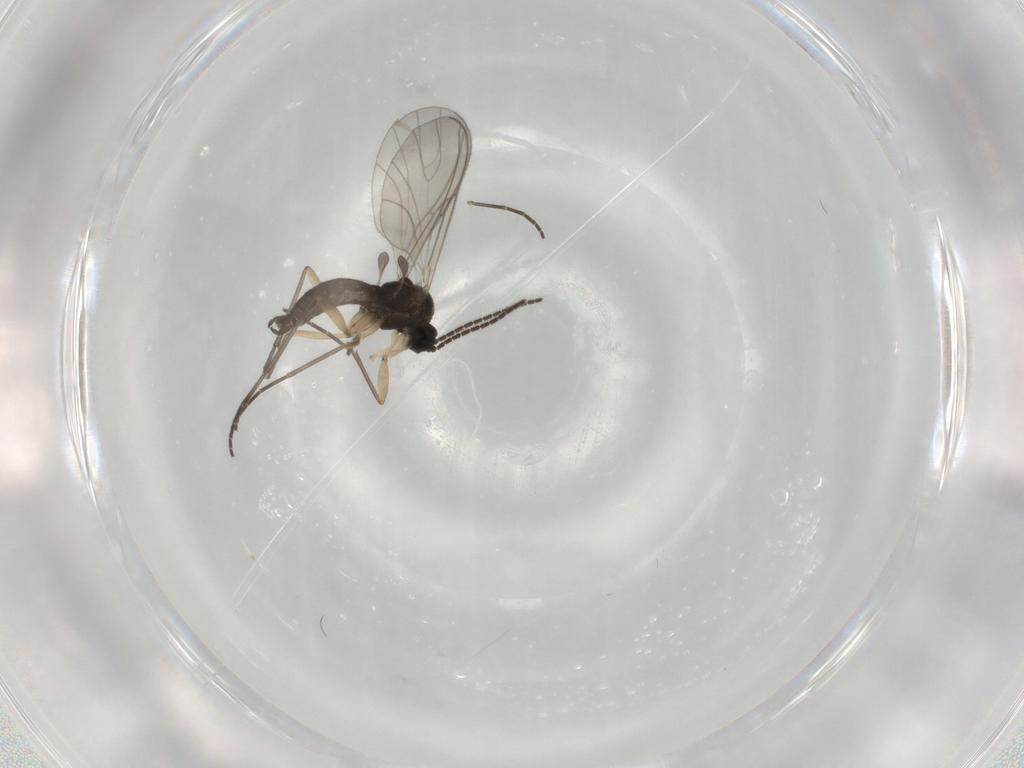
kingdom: Animalia
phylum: Arthropoda
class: Insecta
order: Diptera
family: Sciaridae
